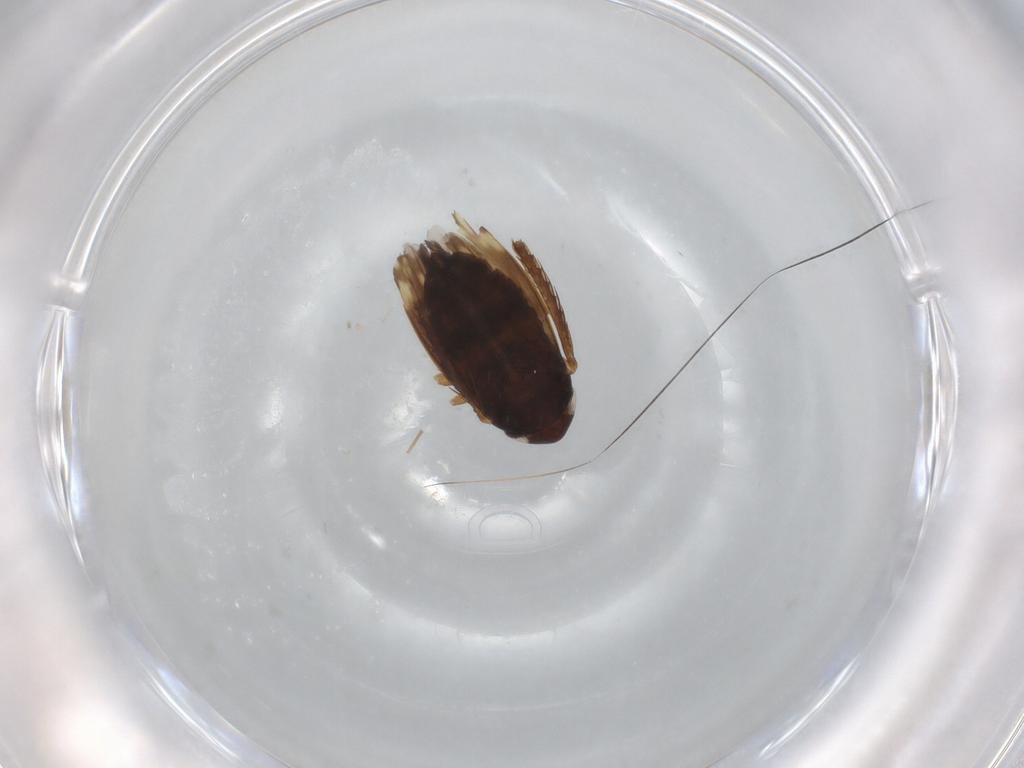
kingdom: Animalia
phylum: Arthropoda
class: Insecta
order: Hemiptera
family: Cicadellidae
